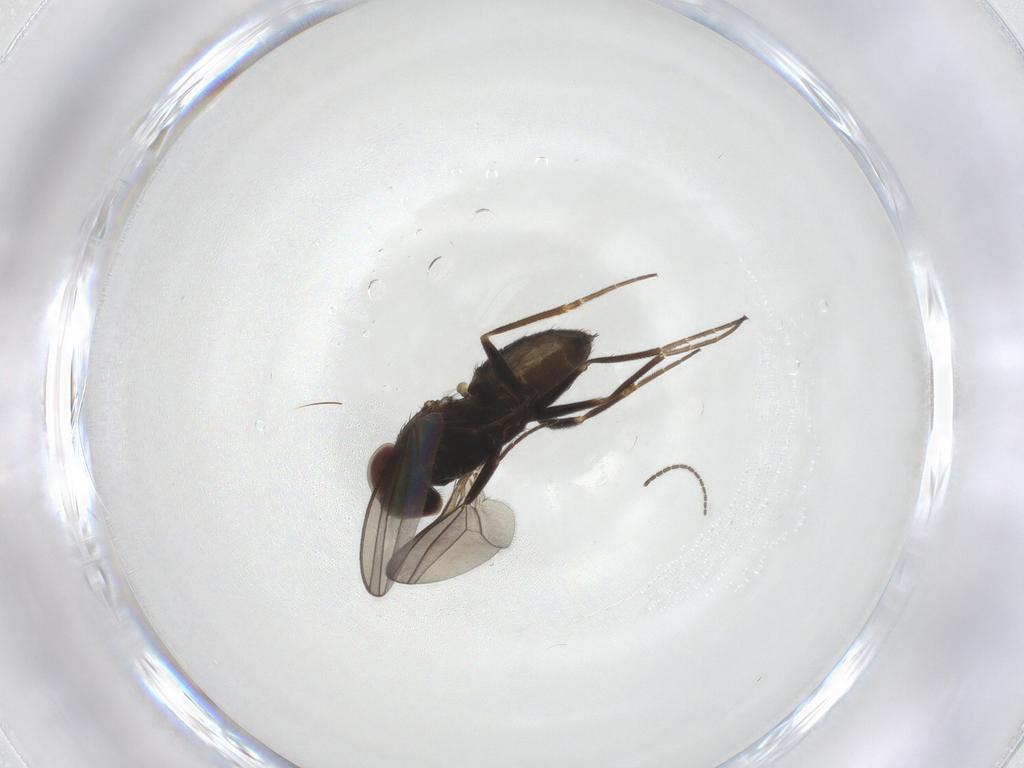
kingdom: Animalia
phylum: Arthropoda
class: Insecta
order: Diptera
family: Dolichopodidae
